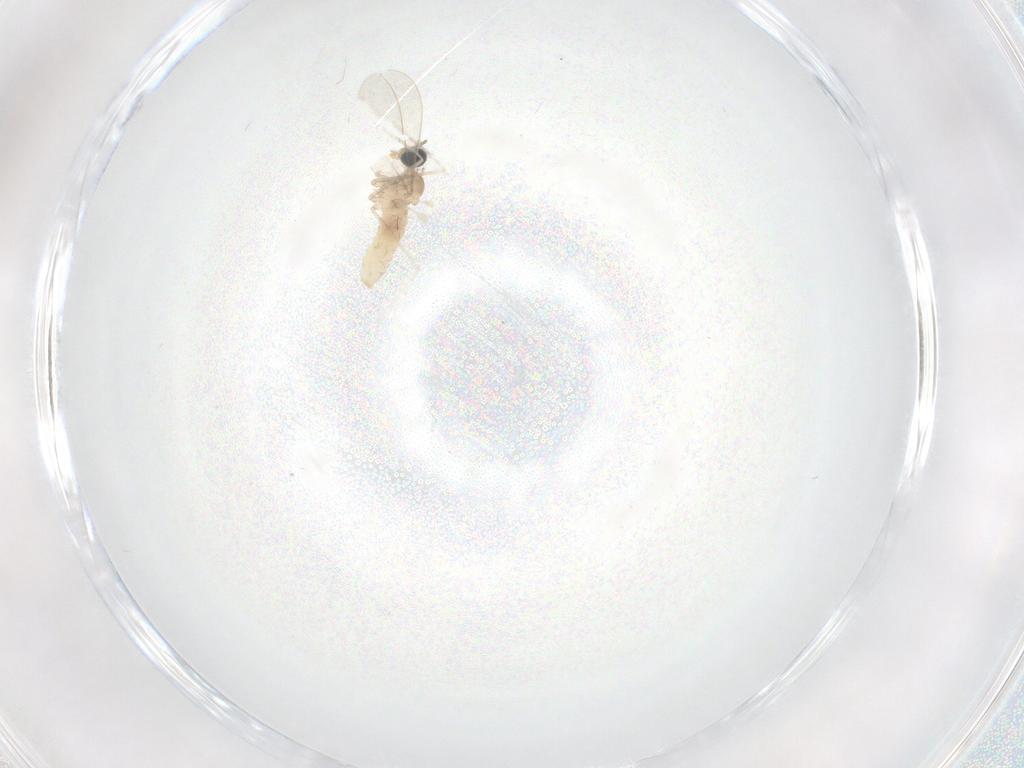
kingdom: Animalia
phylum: Arthropoda
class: Insecta
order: Diptera
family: Cecidomyiidae
